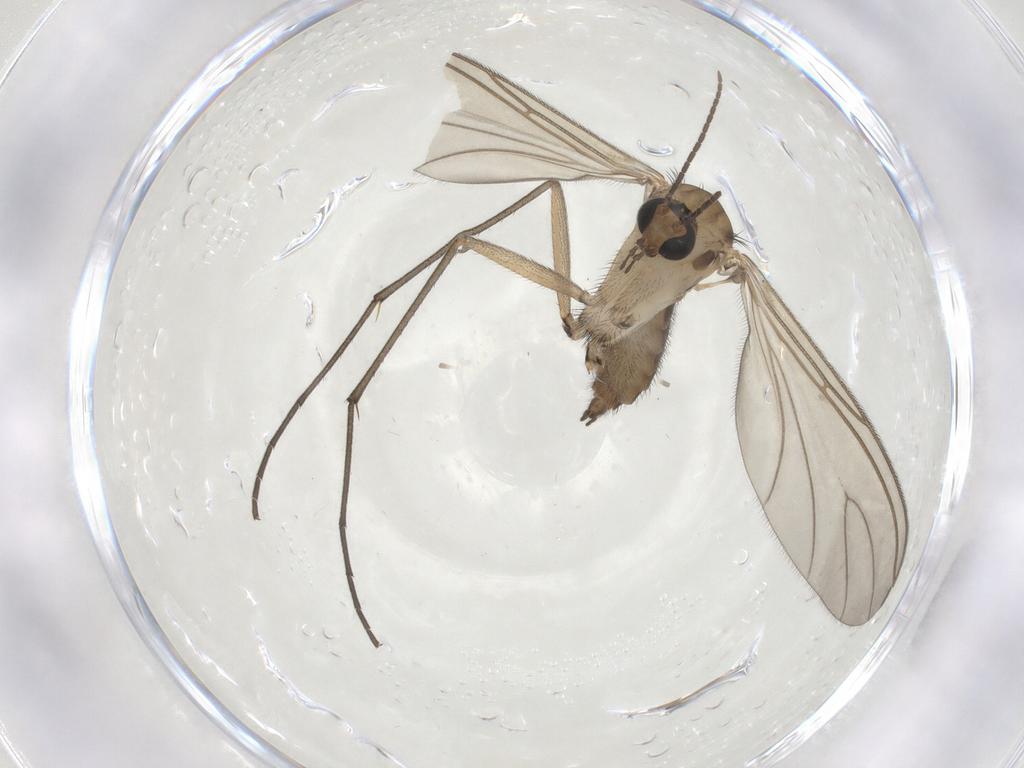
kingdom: Animalia
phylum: Arthropoda
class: Insecta
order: Diptera
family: Sciaridae
